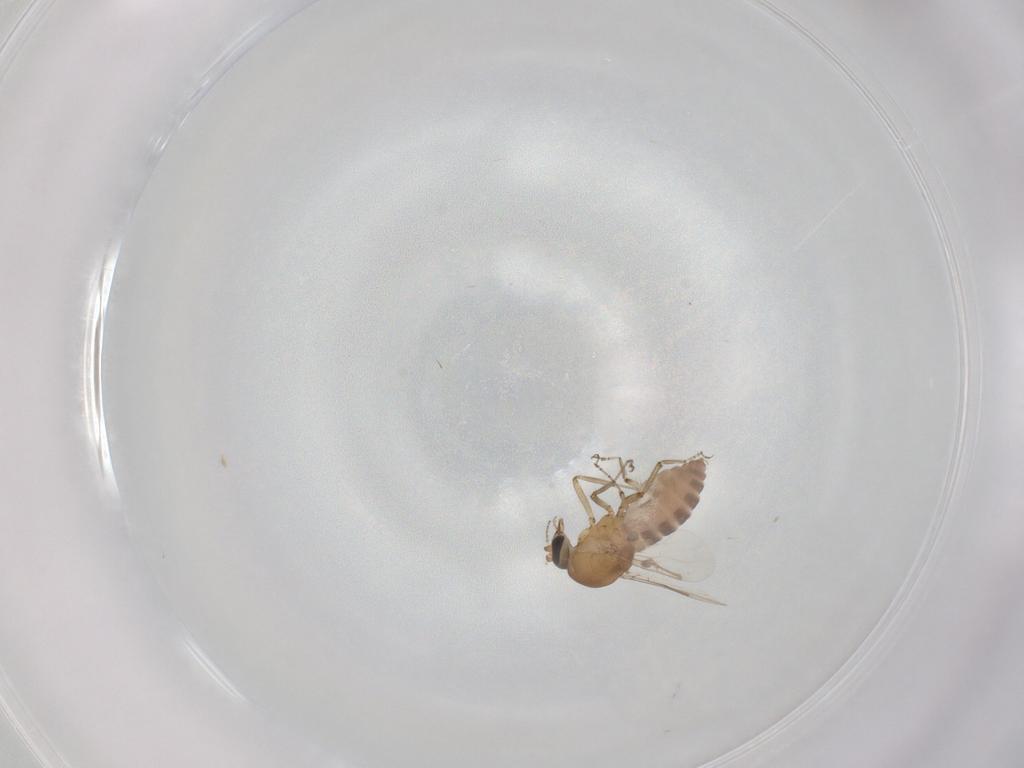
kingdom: Animalia
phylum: Arthropoda
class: Insecta
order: Diptera
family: Ceratopogonidae
